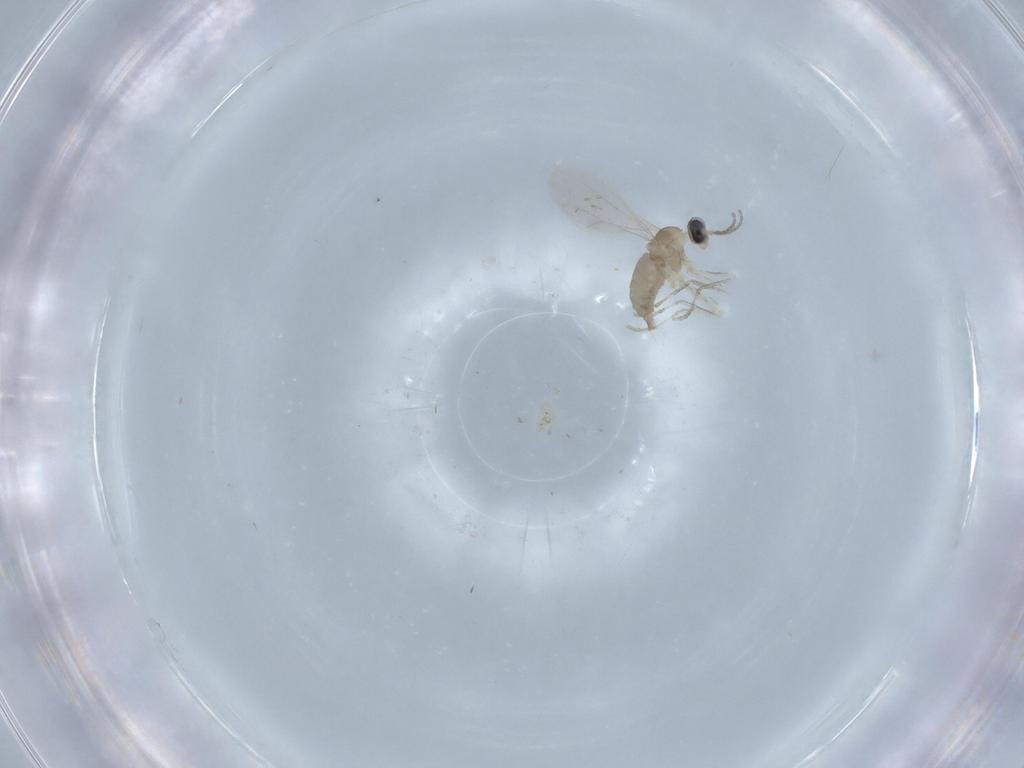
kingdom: Animalia
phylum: Arthropoda
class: Insecta
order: Diptera
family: Cecidomyiidae
